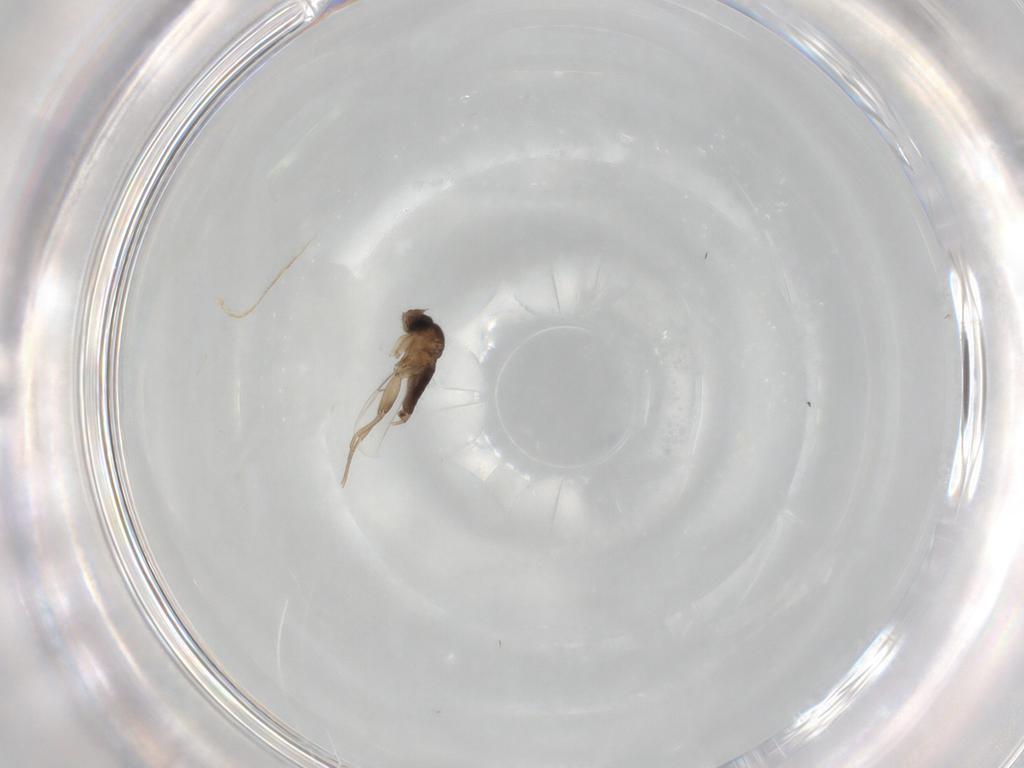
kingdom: Animalia
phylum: Arthropoda
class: Insecta
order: Diptera
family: Phoridae
